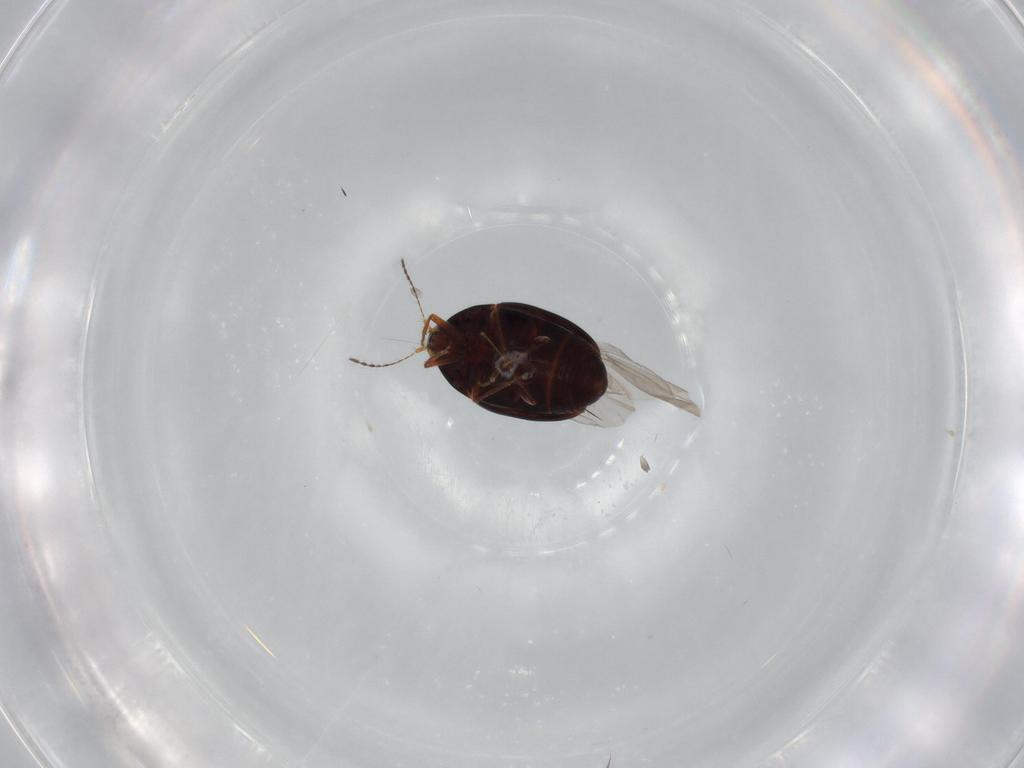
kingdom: Animalia
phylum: Arthropoda
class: Insecta
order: Coleoptera
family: Staphylinidae
